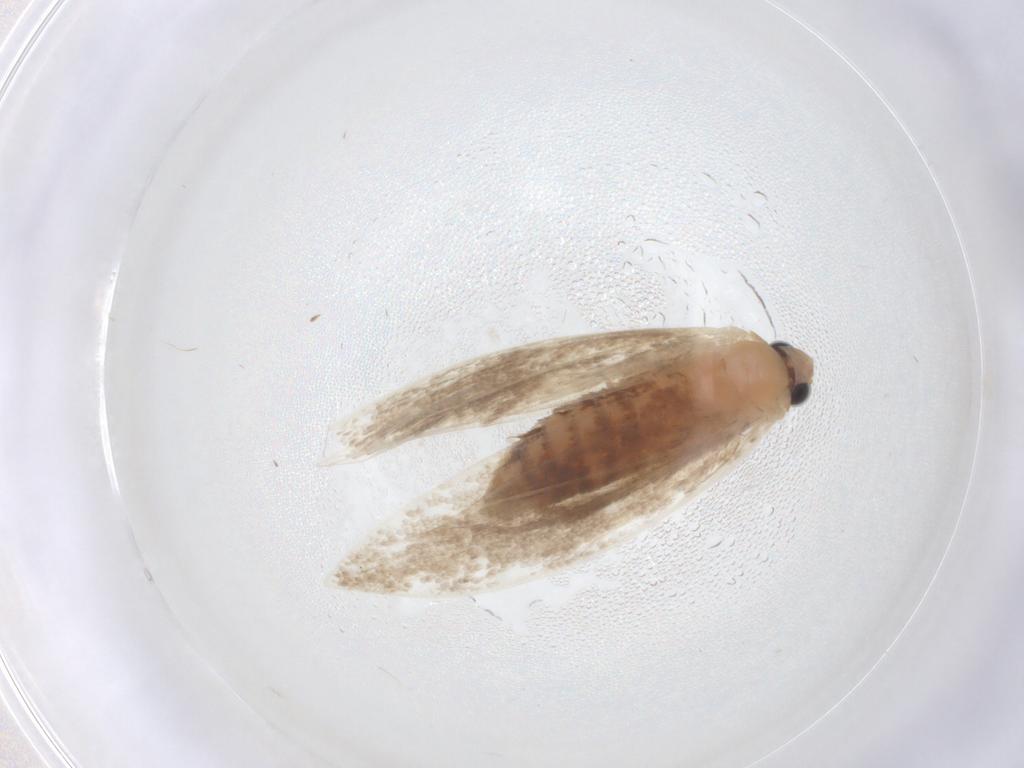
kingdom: Animalia
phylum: Arthropoda
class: Insecta
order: Lepidoptera
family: Tineidae
